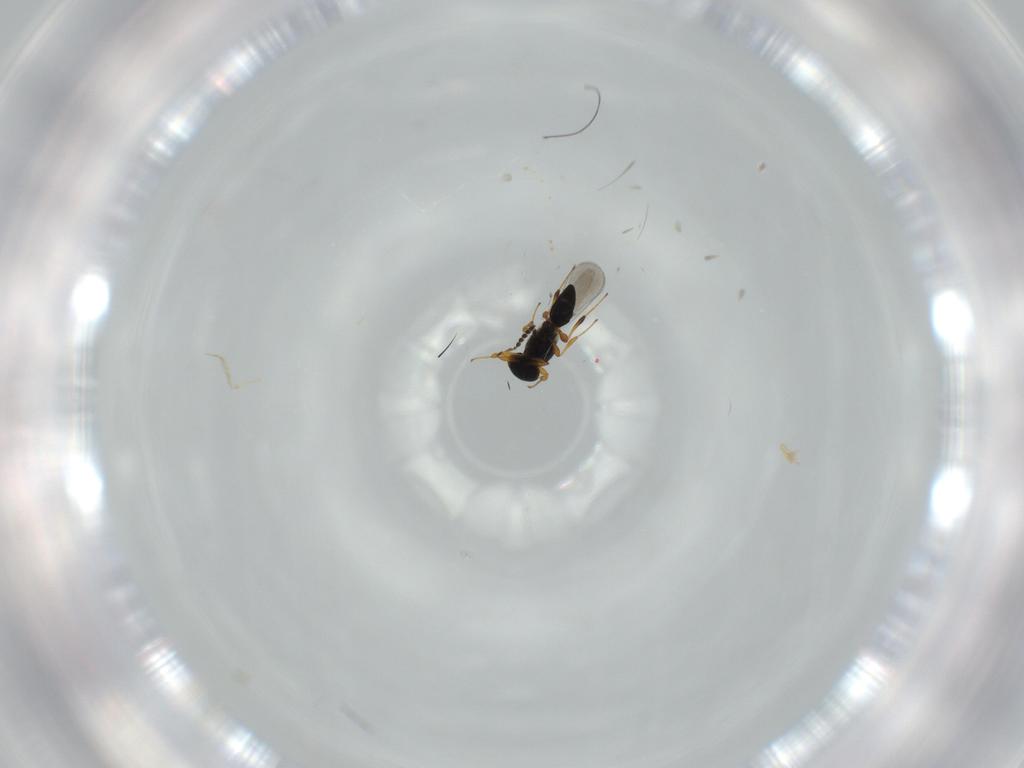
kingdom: Animalia
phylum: Arthropoda
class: Insecta
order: Hymenoptera
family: Platygastridae
